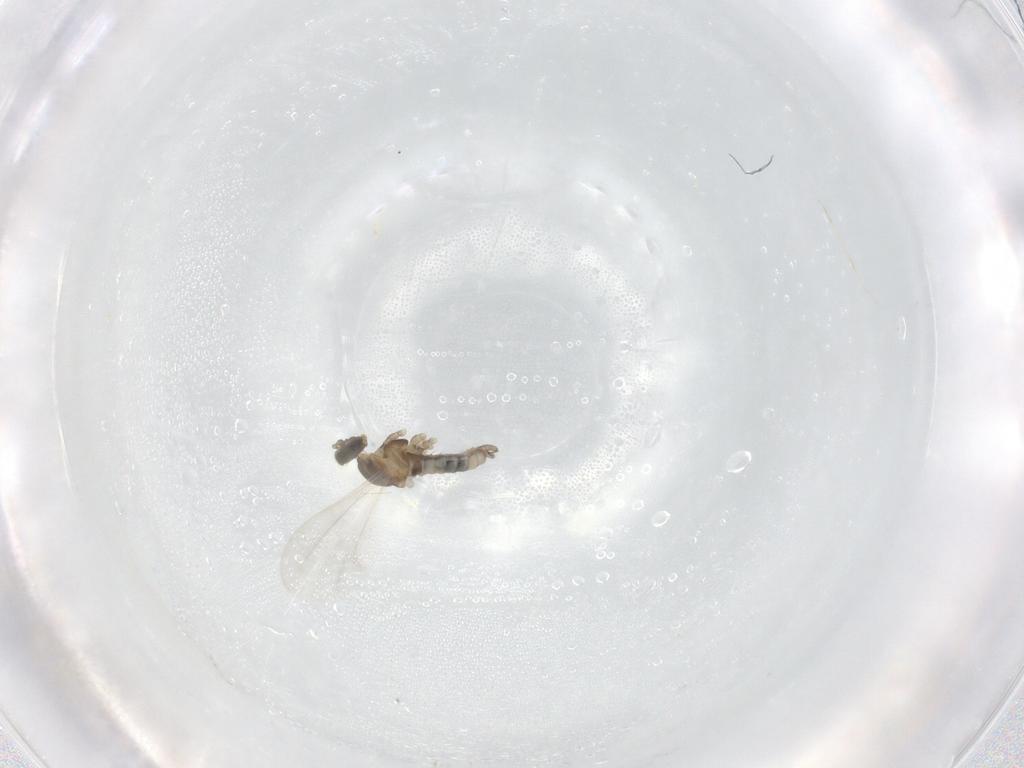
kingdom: Animalia
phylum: Arthropoda
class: Insecta
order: Diptera
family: Cecidomyiidae
